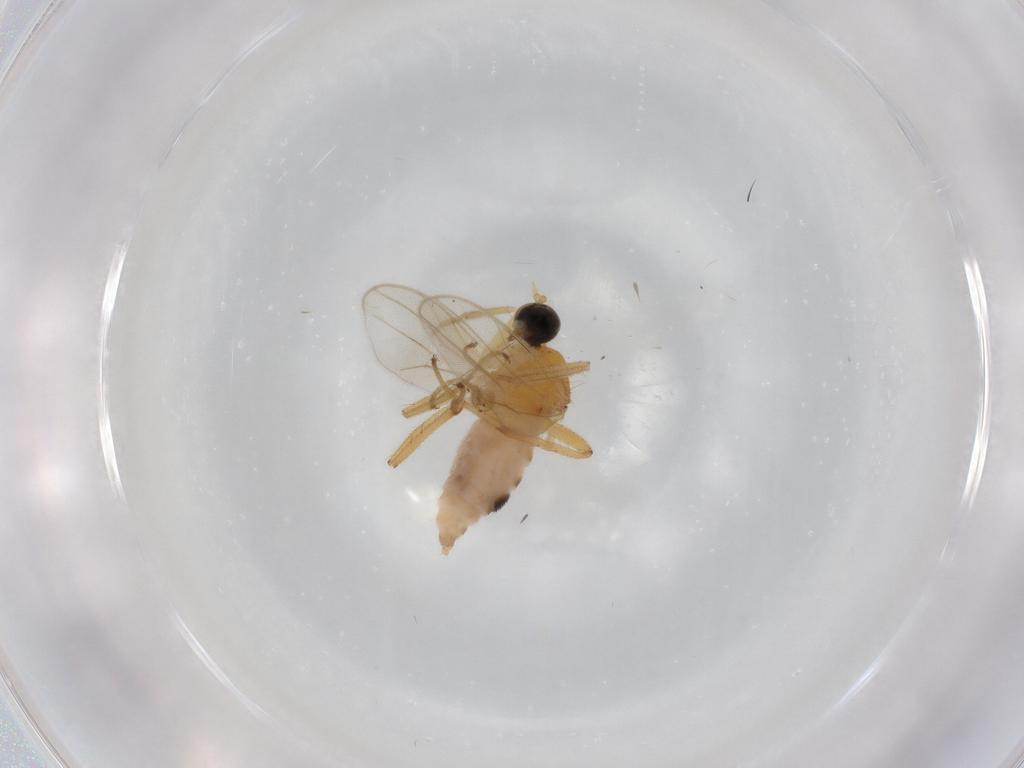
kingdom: Animalia
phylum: Arthropoda
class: Insecta
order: Diptera
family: Hybotidae
